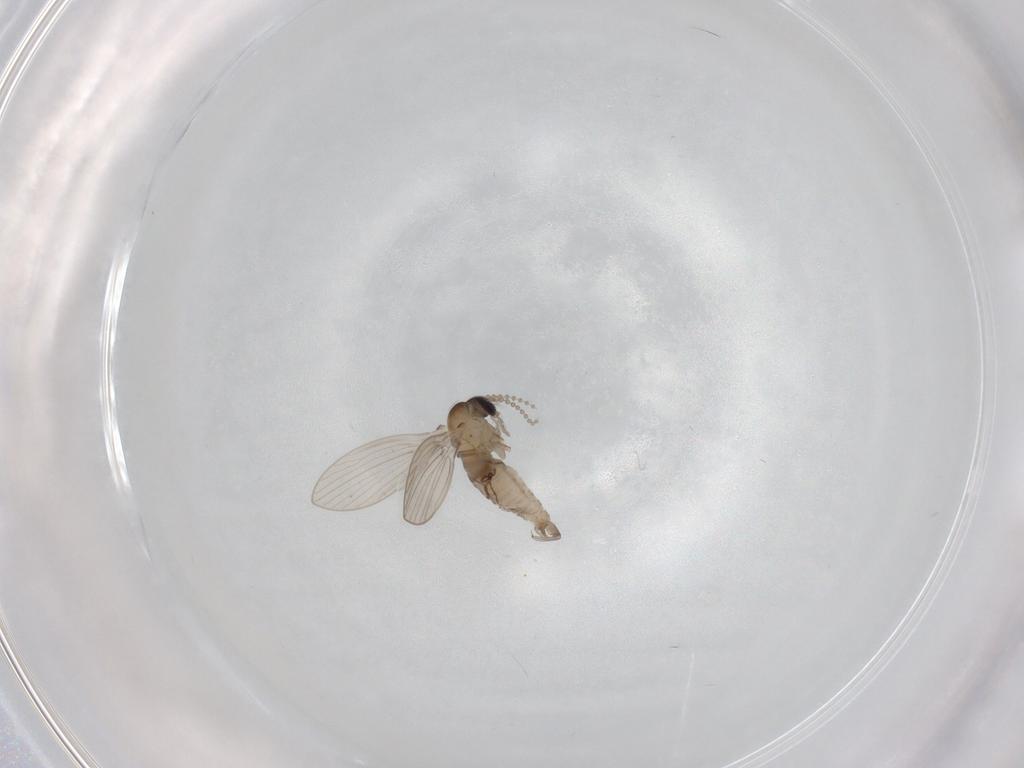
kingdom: Animalia
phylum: Arthropoda
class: Insecta
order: Diptera
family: Psychodidae
